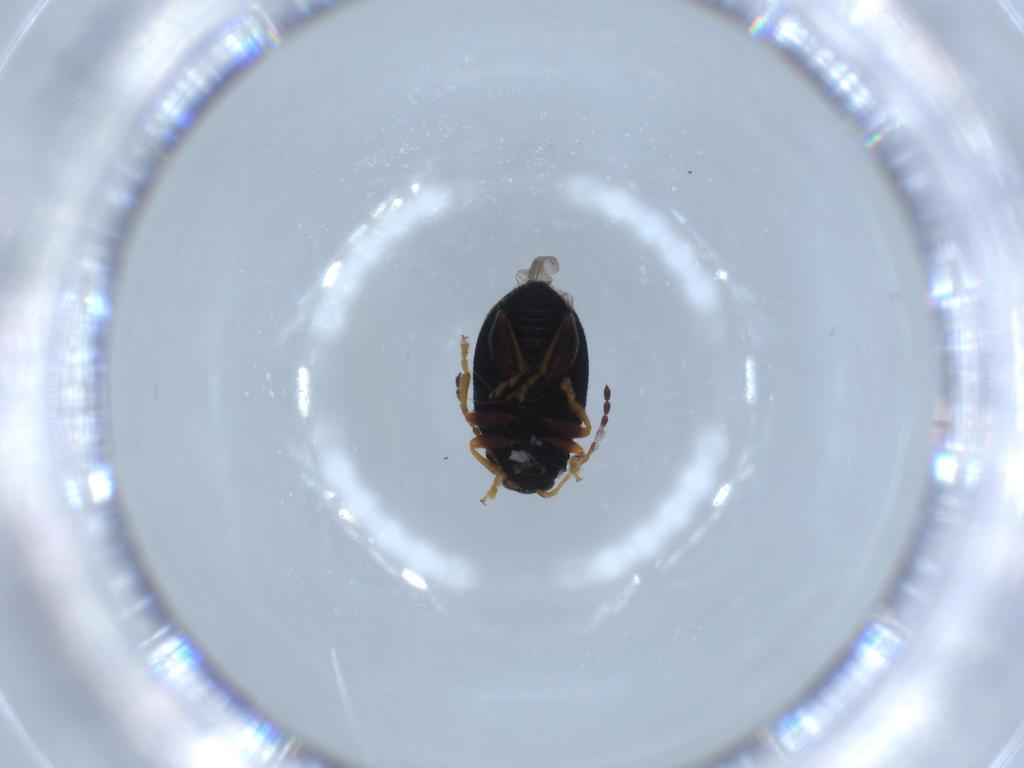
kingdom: Animalia
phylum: Arthropoda
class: Insecta
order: Coleoptera
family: Chrysomelidae
